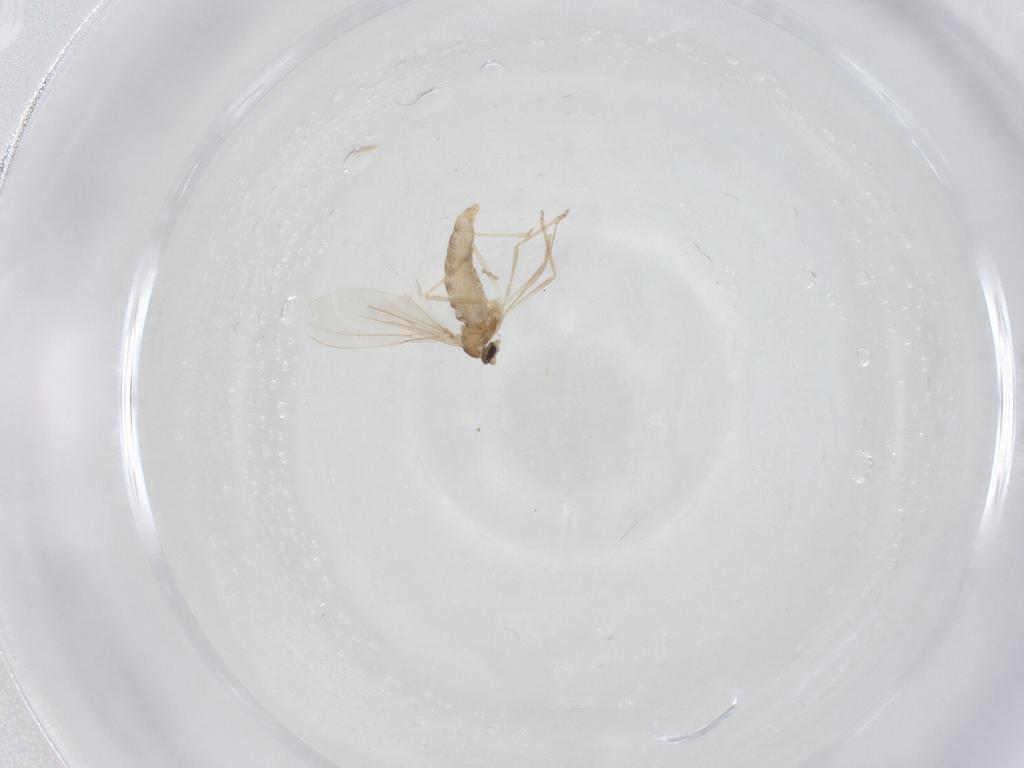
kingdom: Animalia
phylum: Arthropoda
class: Insecta
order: Diptera
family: Cecidomyiidae
